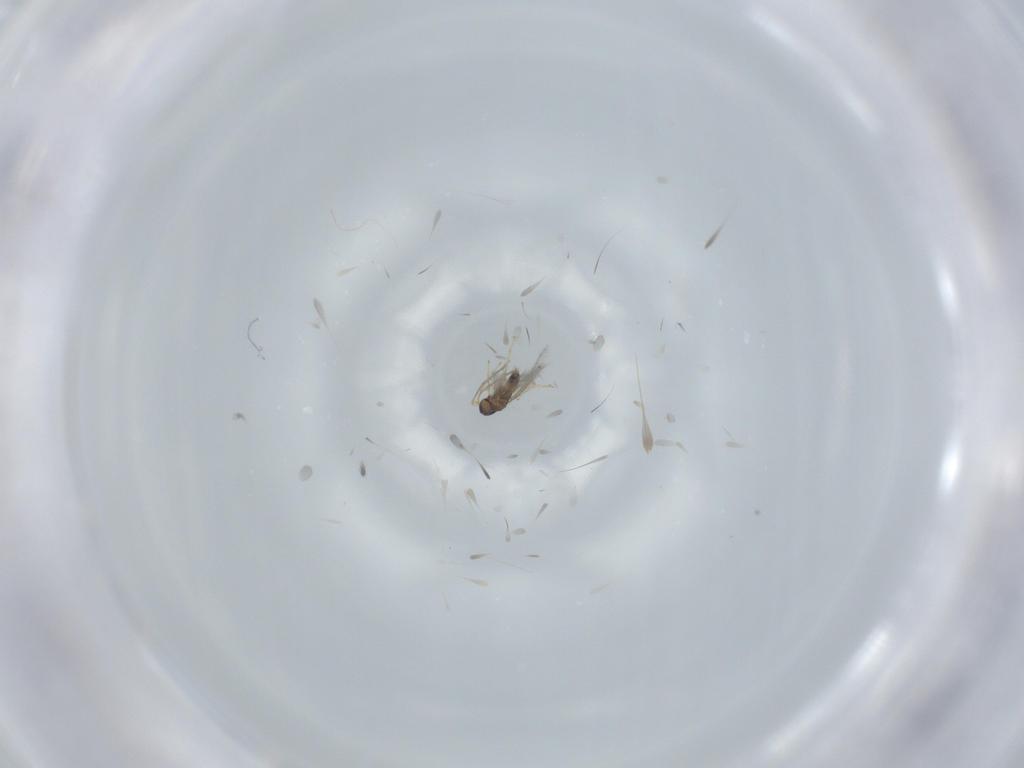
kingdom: Animalia
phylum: Arthropoda
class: Insecta
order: Hymenoptera
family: Mymaridae
